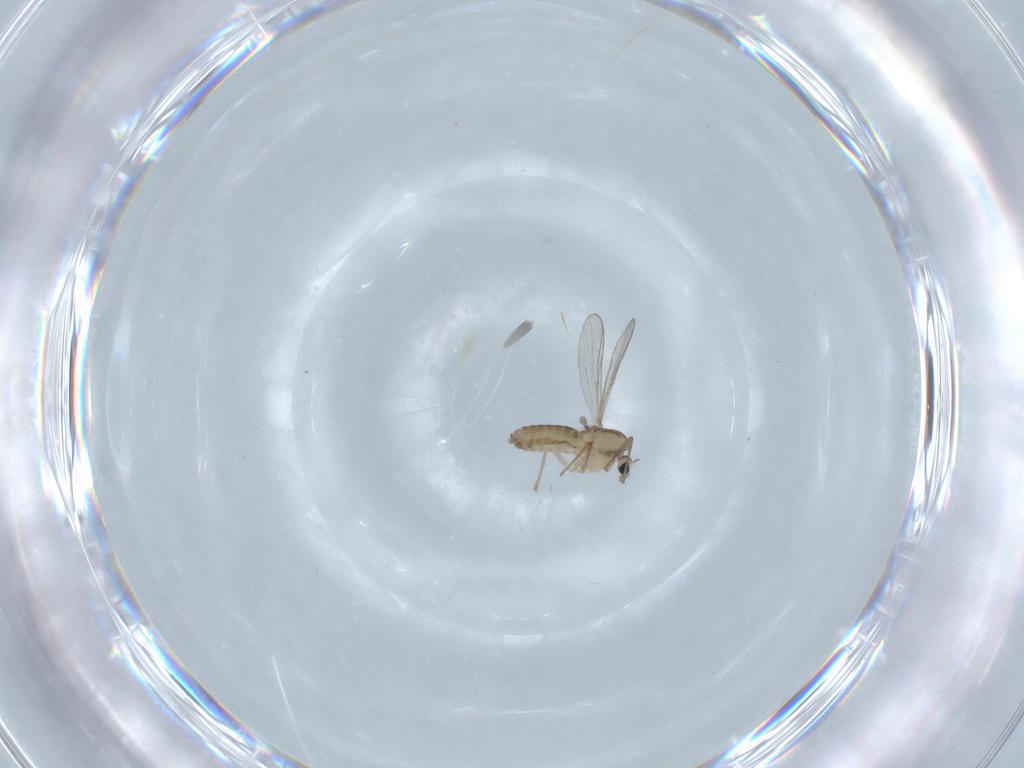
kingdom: Animalia
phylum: Arthropoda
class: Insecta
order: Diptera
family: Chironomidae
